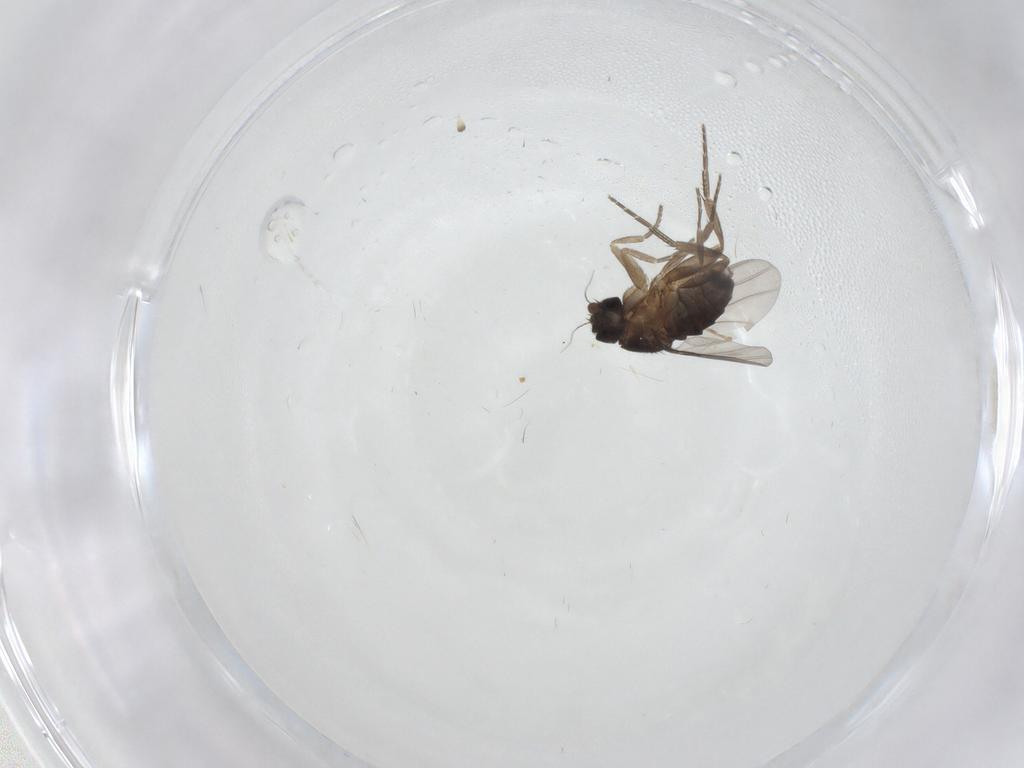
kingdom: Animalia
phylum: Arthropoda
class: Insecta
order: Diptera
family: Phoridae
